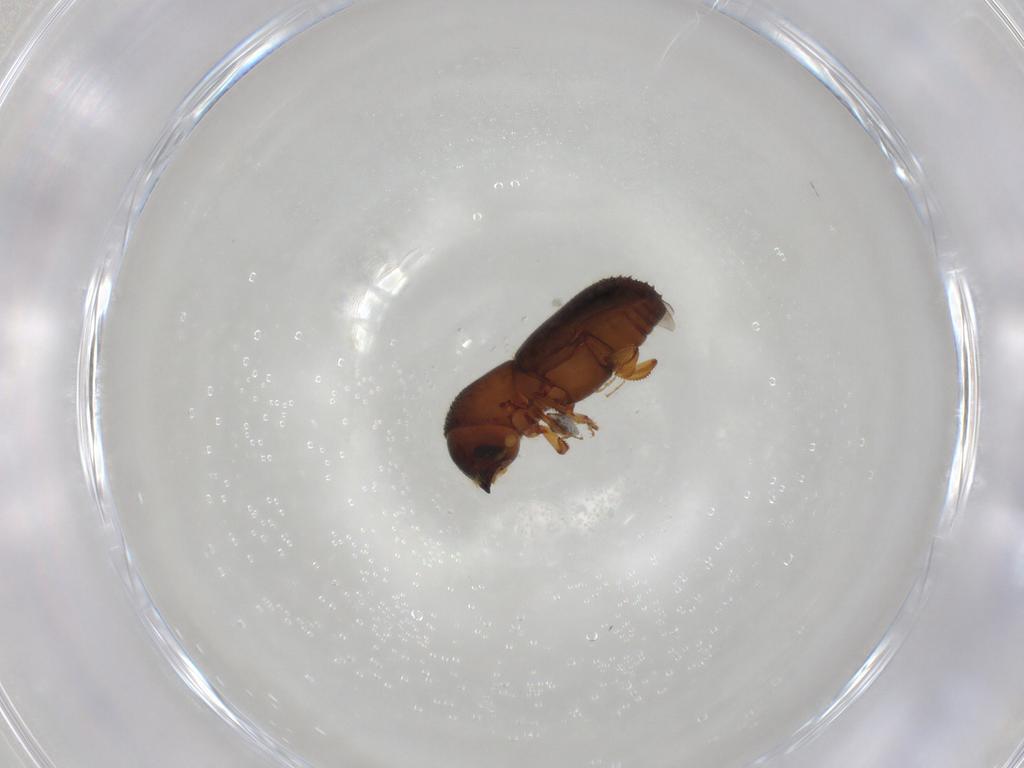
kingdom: Animalia
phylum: Arthropoda
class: Insecta
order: Coleoptera
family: Curculionidae
